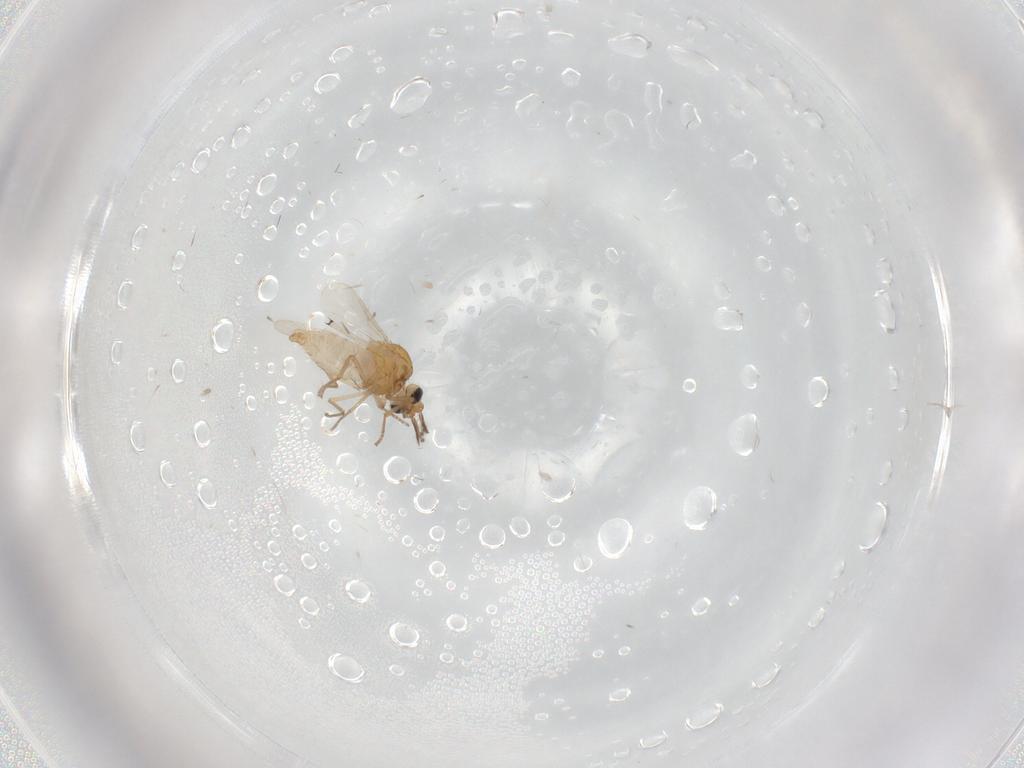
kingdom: Animalia
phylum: Arthropoda
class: Insecta
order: Diptera
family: Ceratopogonidae
